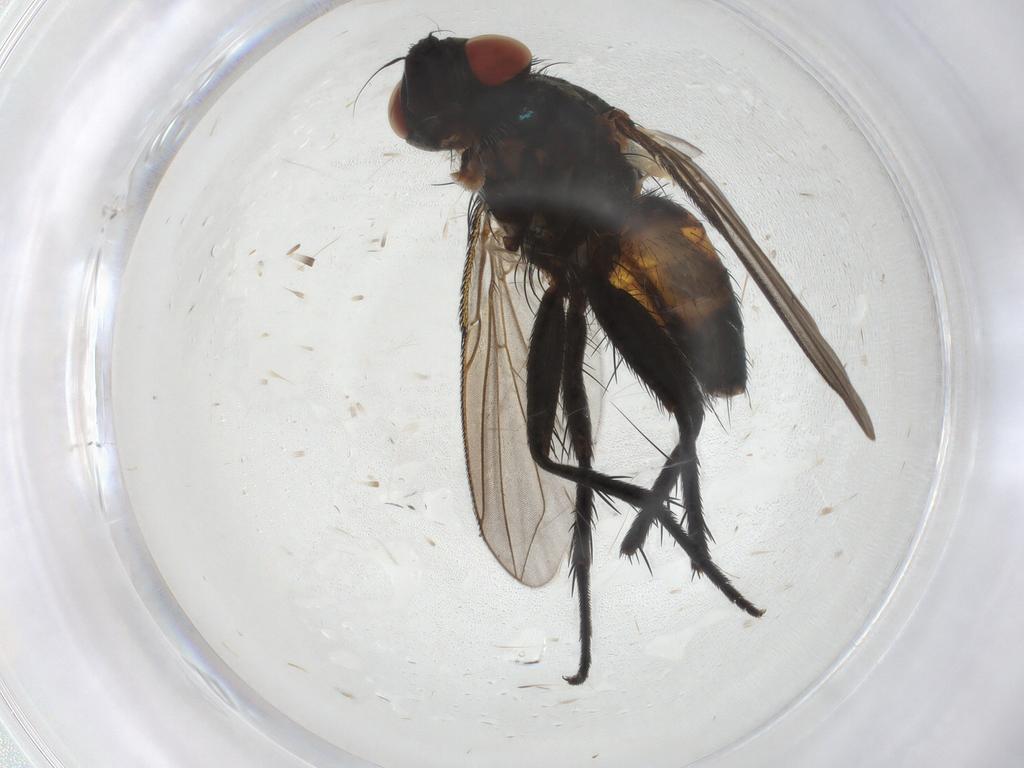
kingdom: Animalia
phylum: Arthropoda
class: Insecta
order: Diptera
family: Tachinidae
